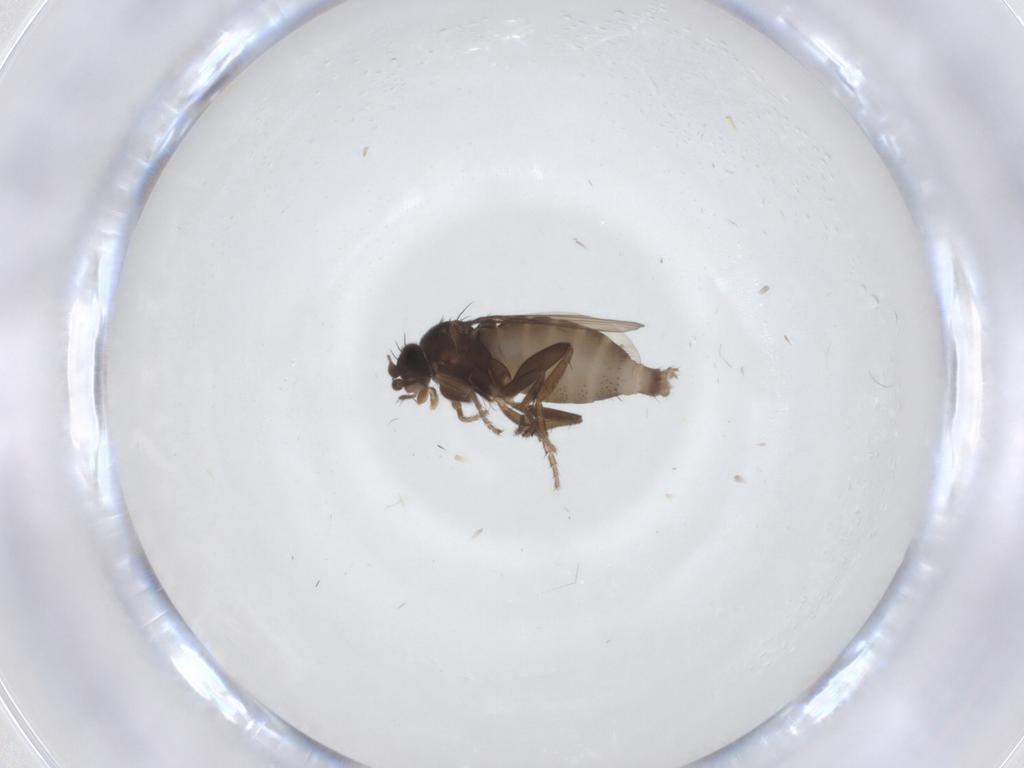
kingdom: Animalia
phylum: Arthropoda
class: Insecta
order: Diptera
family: Phoridae
